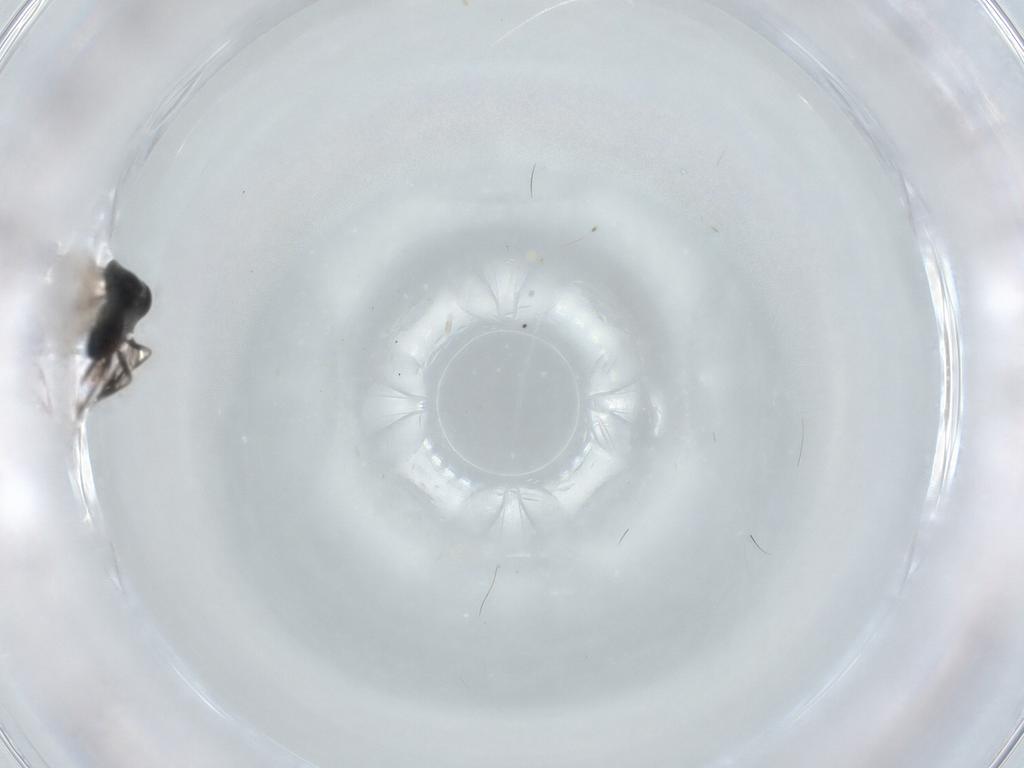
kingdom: Animalia
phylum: Arthropoda
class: Insecta
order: Hymenoptera
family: Scelionidae
